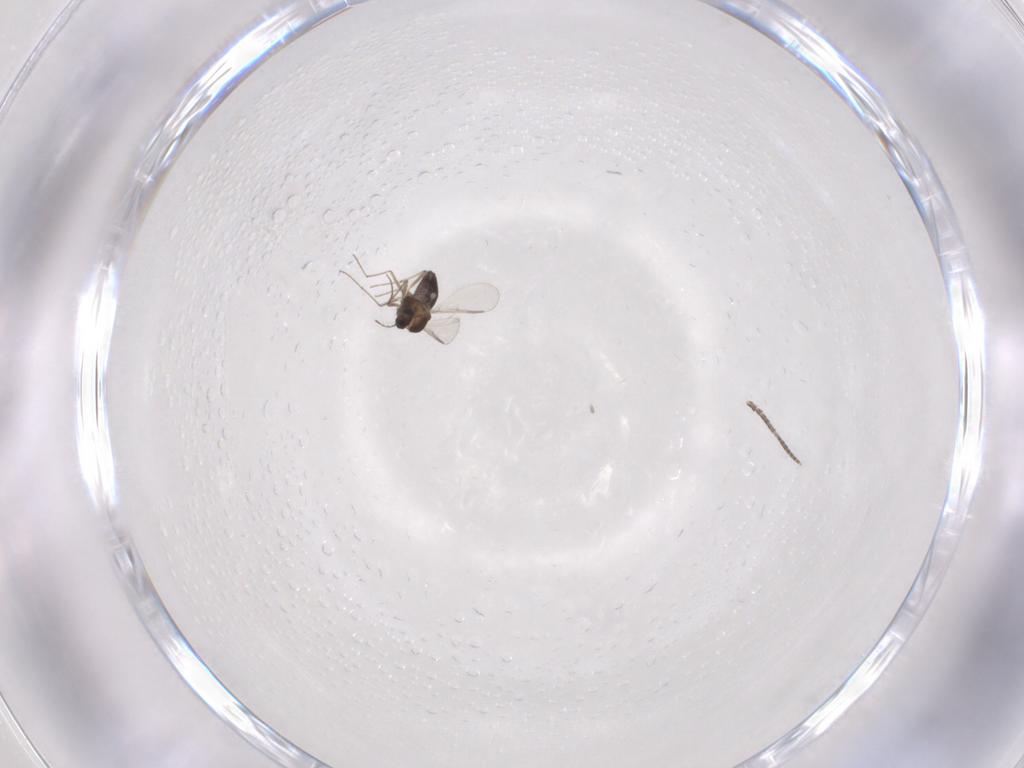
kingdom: Animalia
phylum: Arthropoda
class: Insecta
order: Diptera
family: Chironomidae
